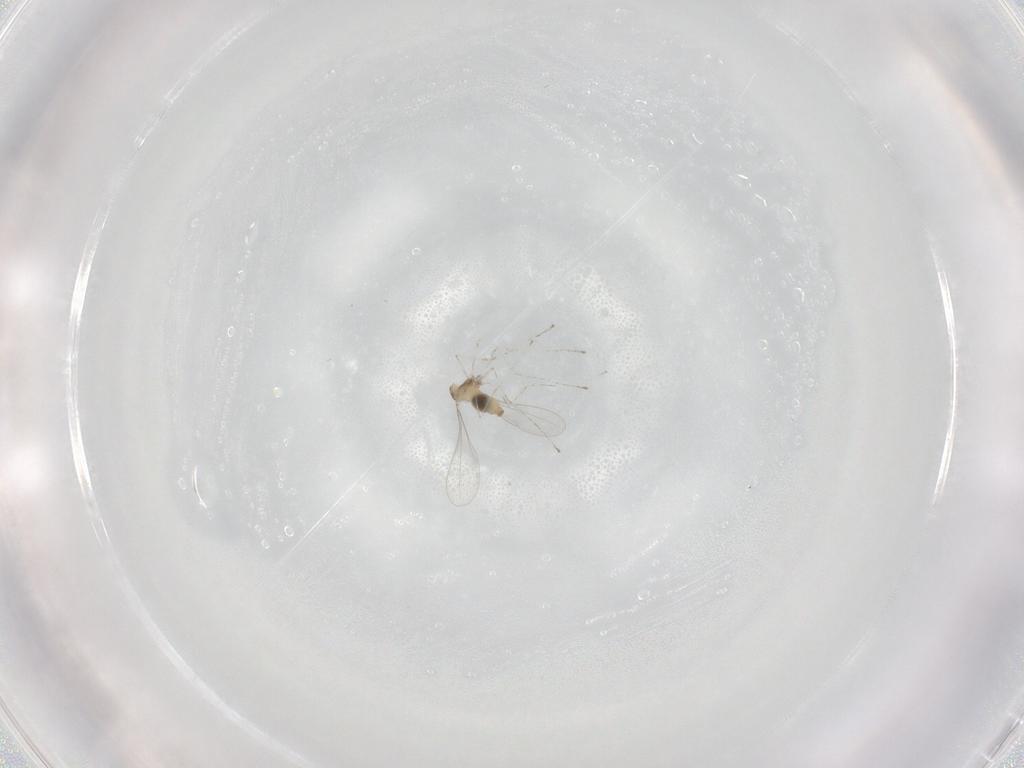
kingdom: Animalia
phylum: Arthropoda
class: Insecta
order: Diptera
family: Cecidomyiidae
